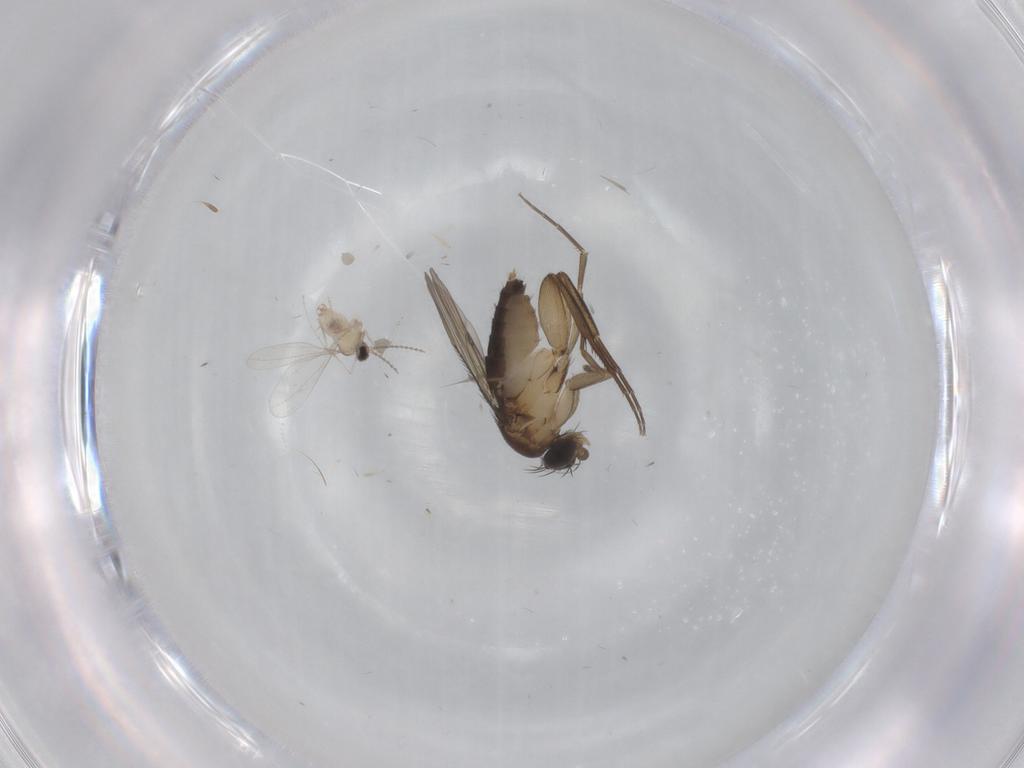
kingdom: Animalia
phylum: Arthropoda
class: Insecta
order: Diptera
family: Phoridae
